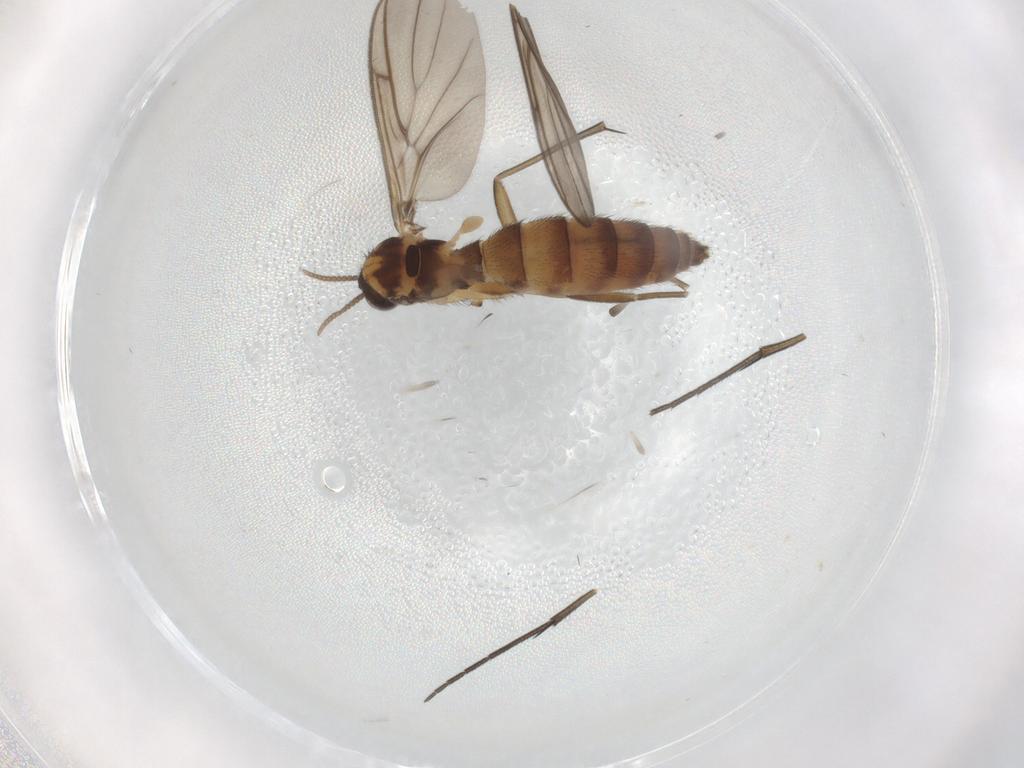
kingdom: Animalia
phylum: Arthropoda
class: Insecta
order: Diptera
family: Keroplatidae
